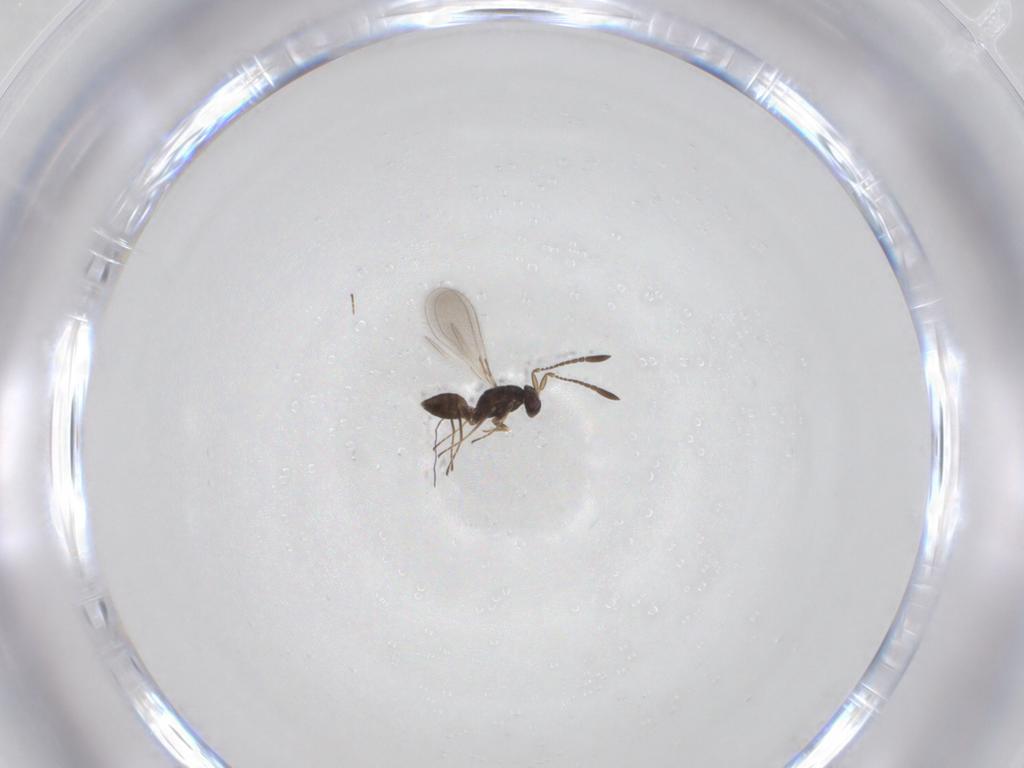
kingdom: Animalia
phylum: Arthropoda
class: Insecta
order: Hymenoptera
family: Mymaridae
